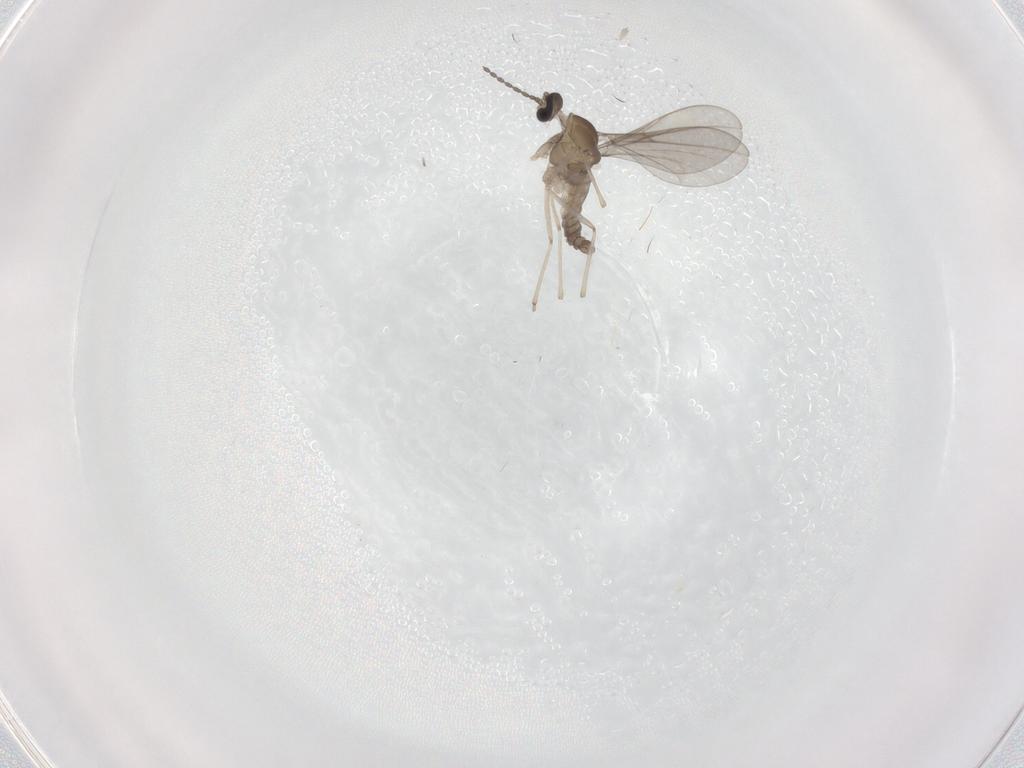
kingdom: Animalia
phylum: Arthropoda
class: Insecta
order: Diptera
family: Cecidomyiidae
